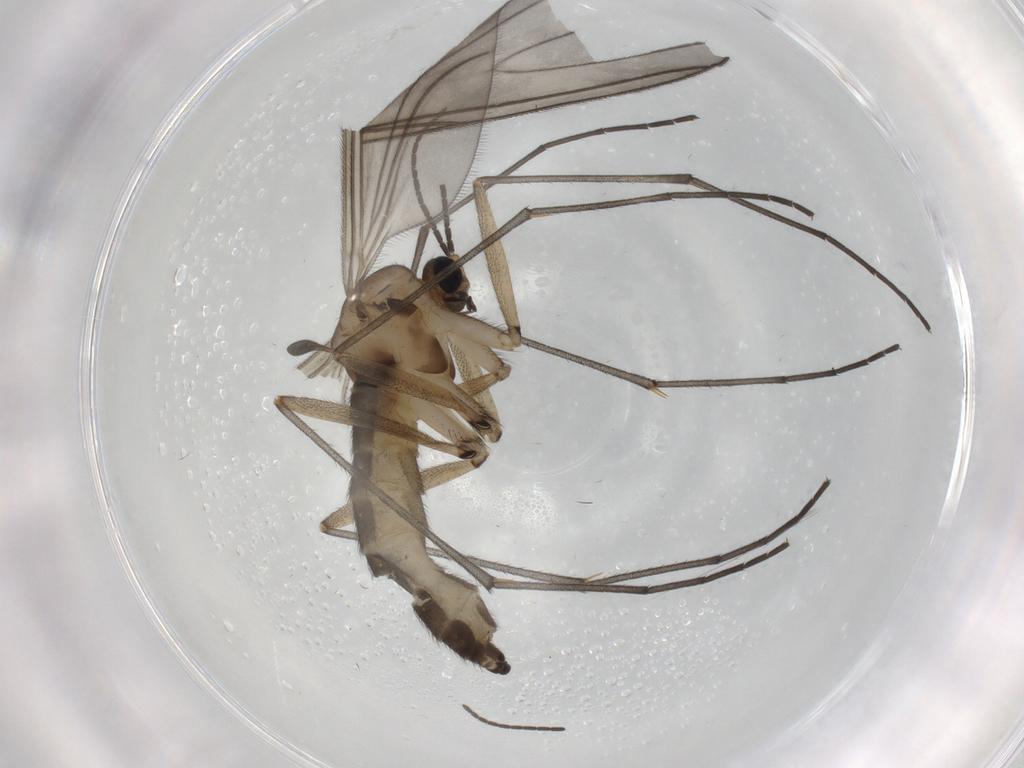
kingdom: Animalia
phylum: Arthropoda
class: Insecta
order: Diptera
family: Sciaridae
